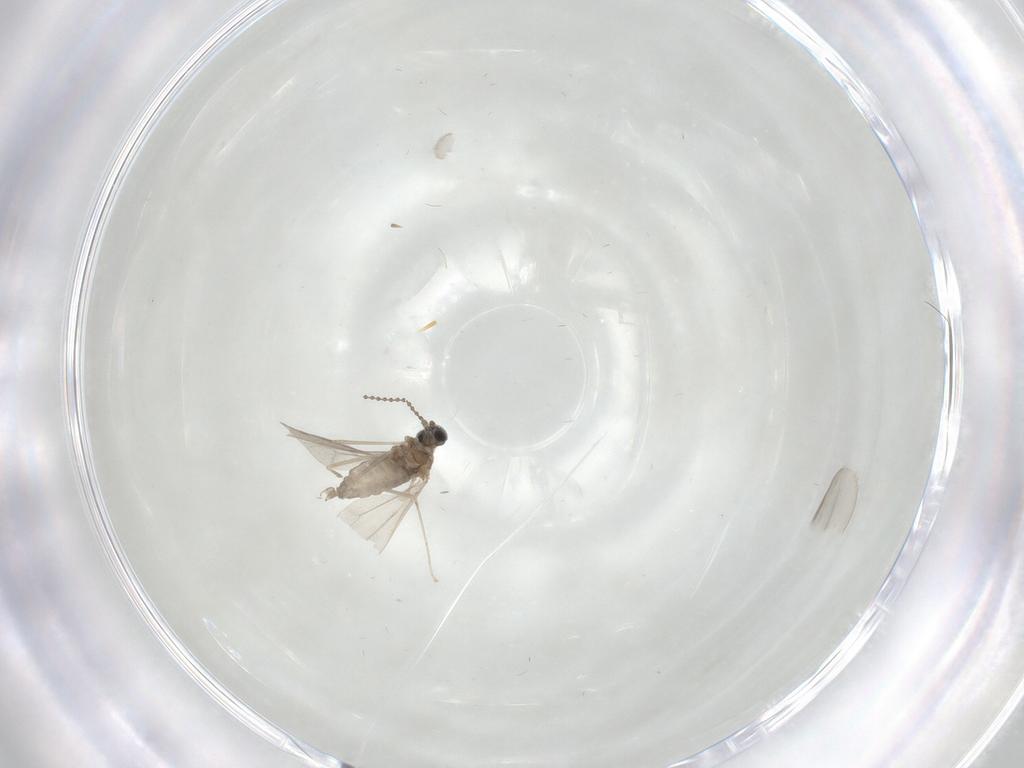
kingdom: Animalia
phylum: Arthropoda
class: Insecta
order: Diptera
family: Cecidomyiidae
